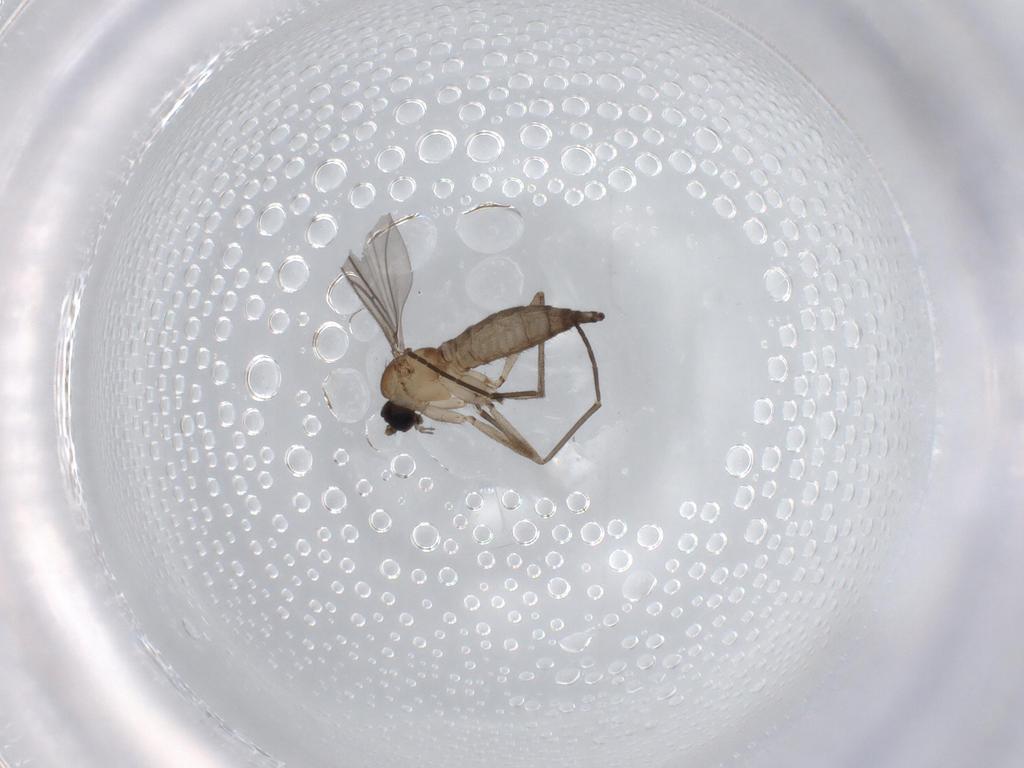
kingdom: Animalia
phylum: Arthropoda
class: Insecta
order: Diptera
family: Sciaridae
